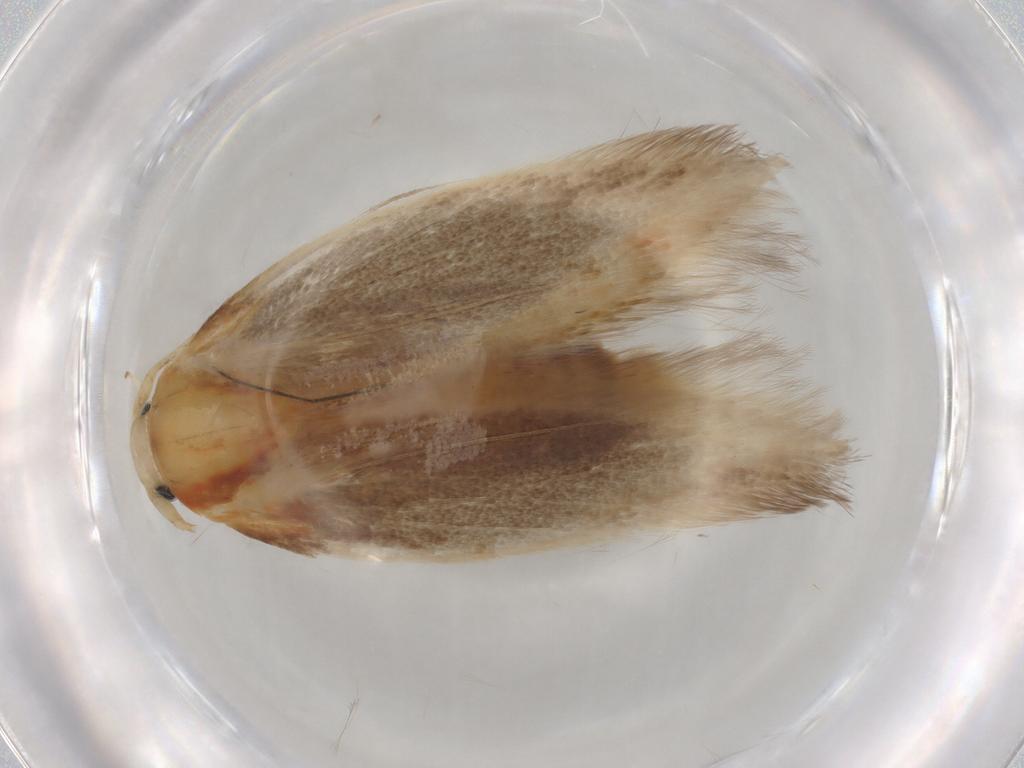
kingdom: Animalia
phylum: Arthropoda
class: Insecta
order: Lepidoptera
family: Geometridae
